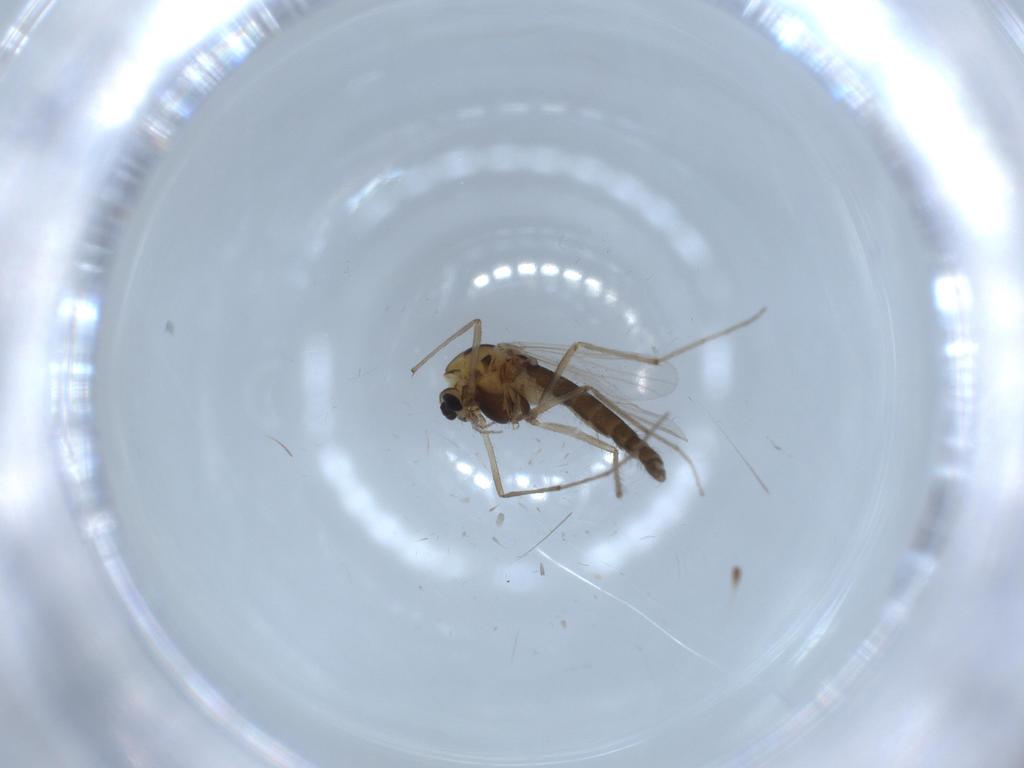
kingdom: Animalia
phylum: Arthropoda
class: Insecta
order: Diptera
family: Chironomidae
